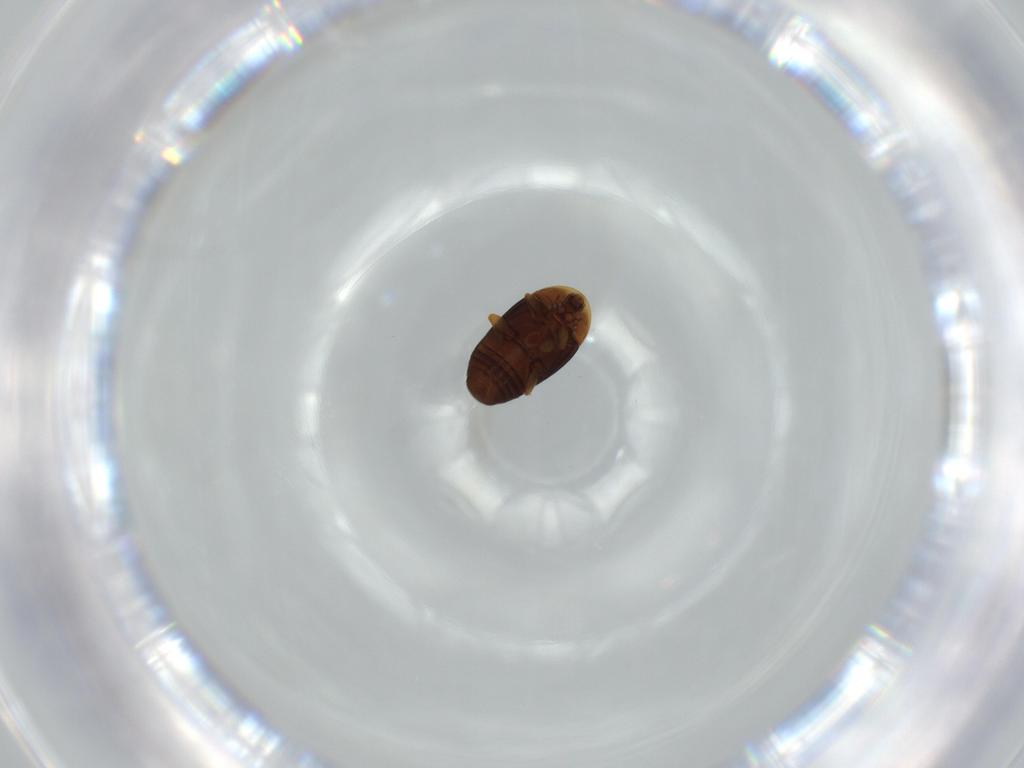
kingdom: Animalia
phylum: Arthropoda
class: Insecta
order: Coleoptera
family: Corylophidae
